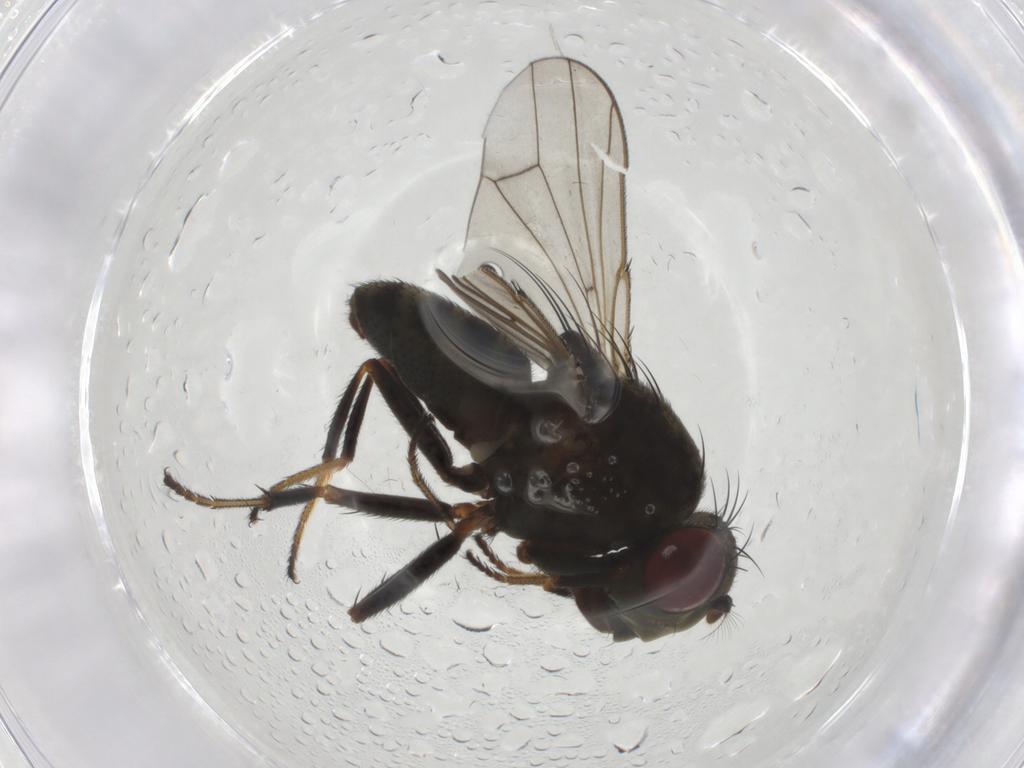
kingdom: Animalia
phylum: Arthropoda
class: Insecta
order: Diptera
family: Ephydridae
